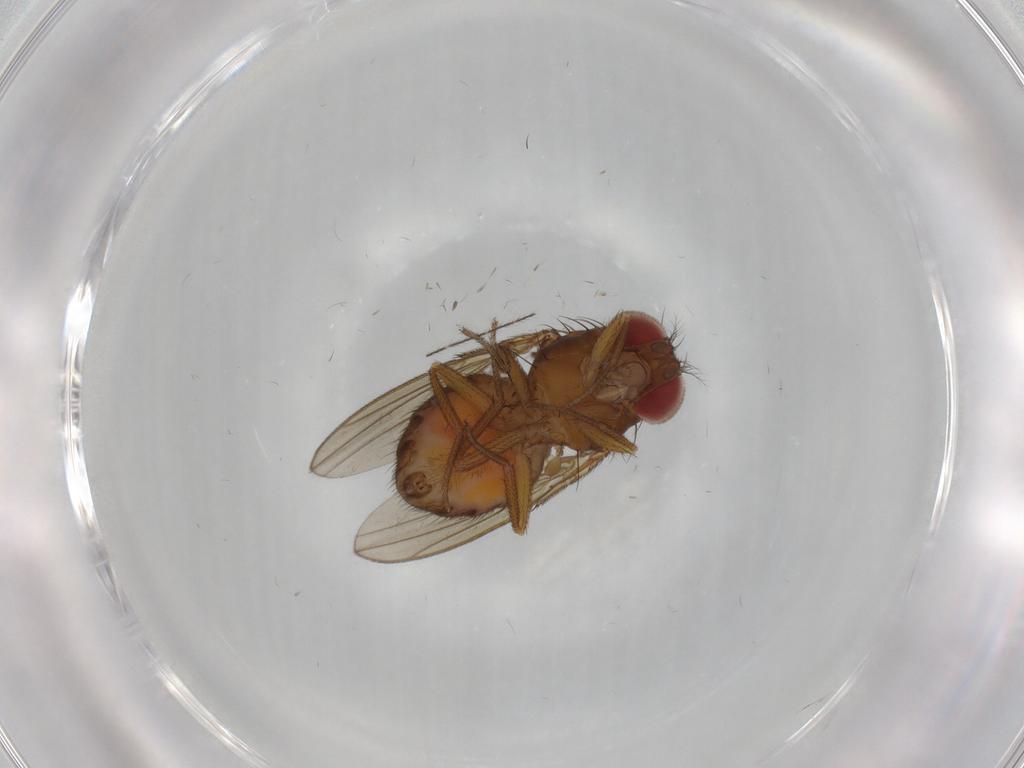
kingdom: Animalia
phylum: Arthropoda
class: Insecta
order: Diptera
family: Drosophilidae
